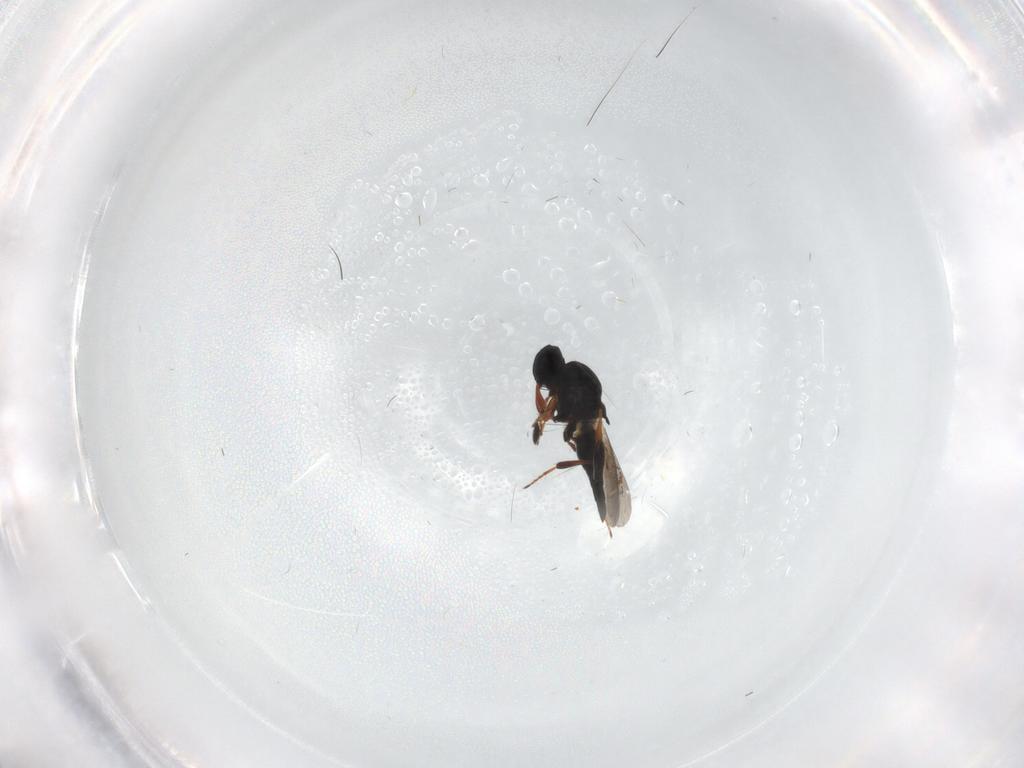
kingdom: Animalia
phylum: Arthropoda
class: Insecta
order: Hymenoptera
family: Platygastridae
